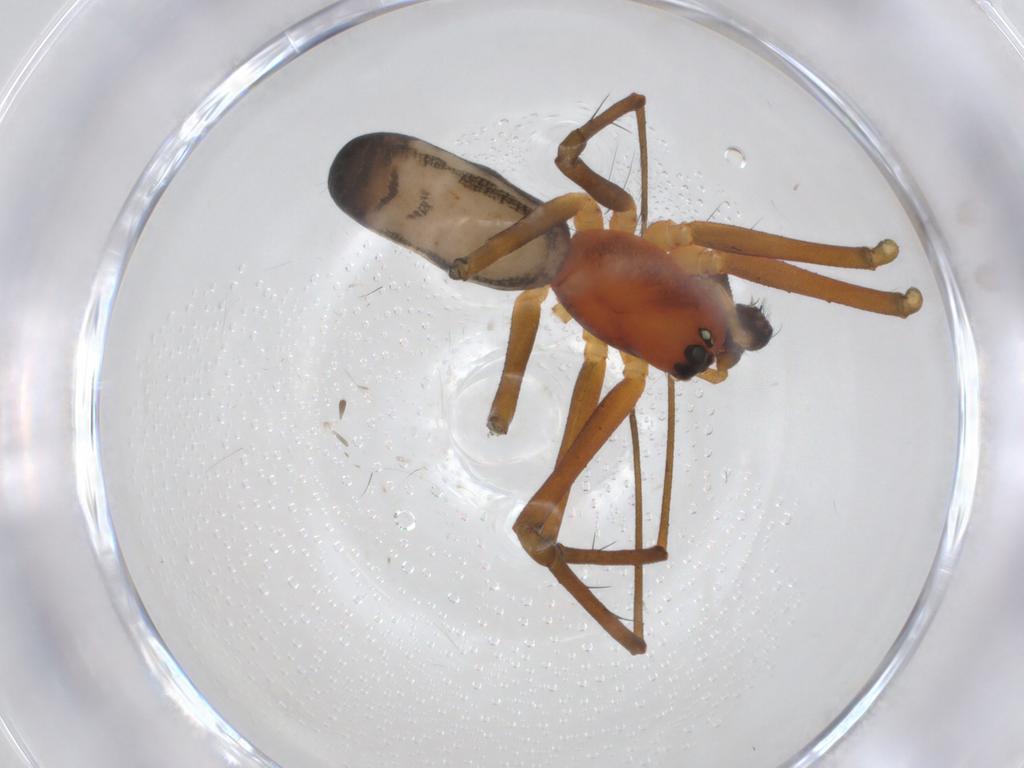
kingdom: Animalia
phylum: Arthropoda
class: Arachnida
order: Araneae
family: Linyphiidae
